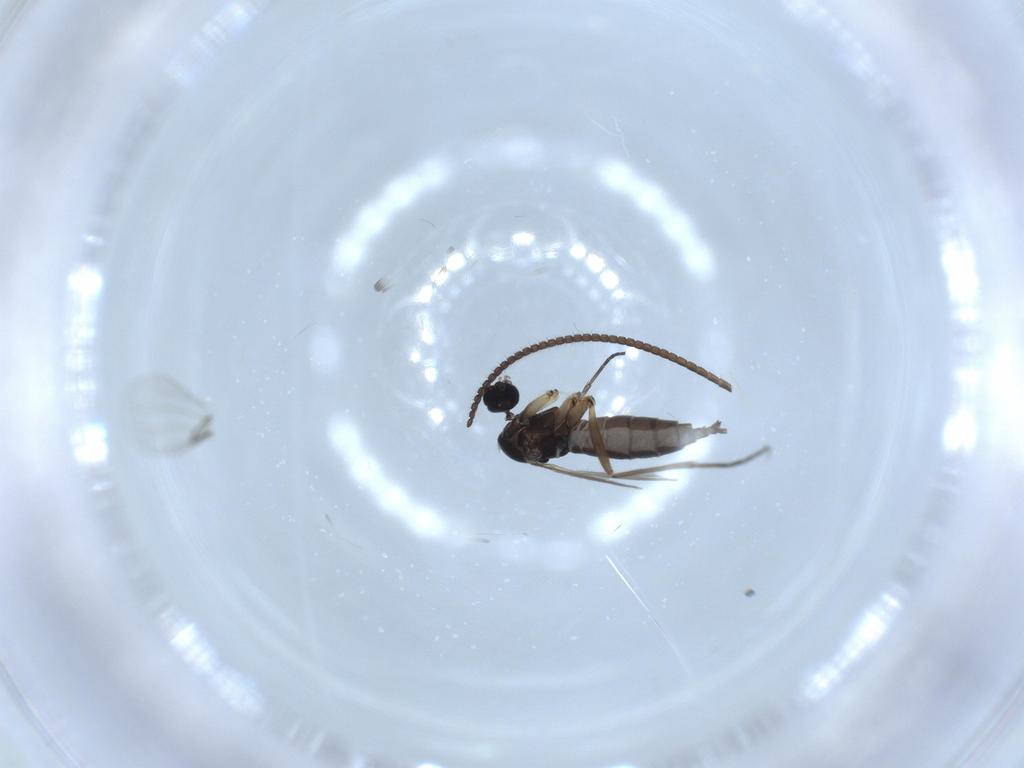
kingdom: Animalia
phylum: Arthropoda
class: Insecta
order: Diptera
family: Sciaridae
